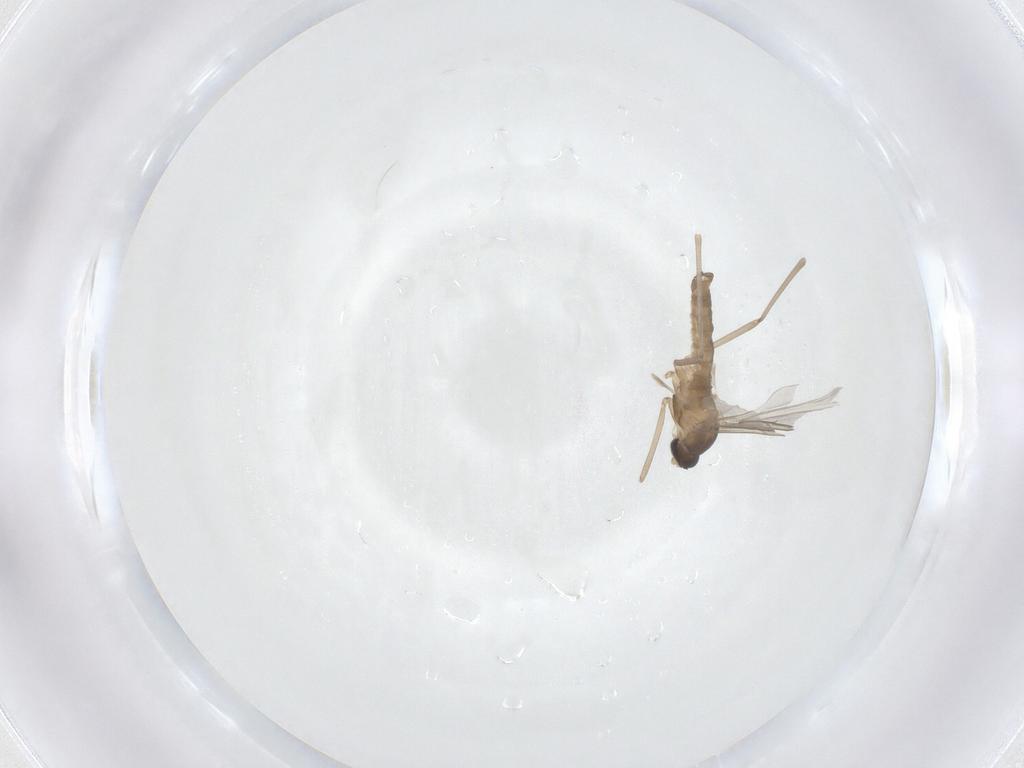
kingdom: Animalia
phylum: Arthropoda
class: Insecta
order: Diptera
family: Cecidomyiidae
